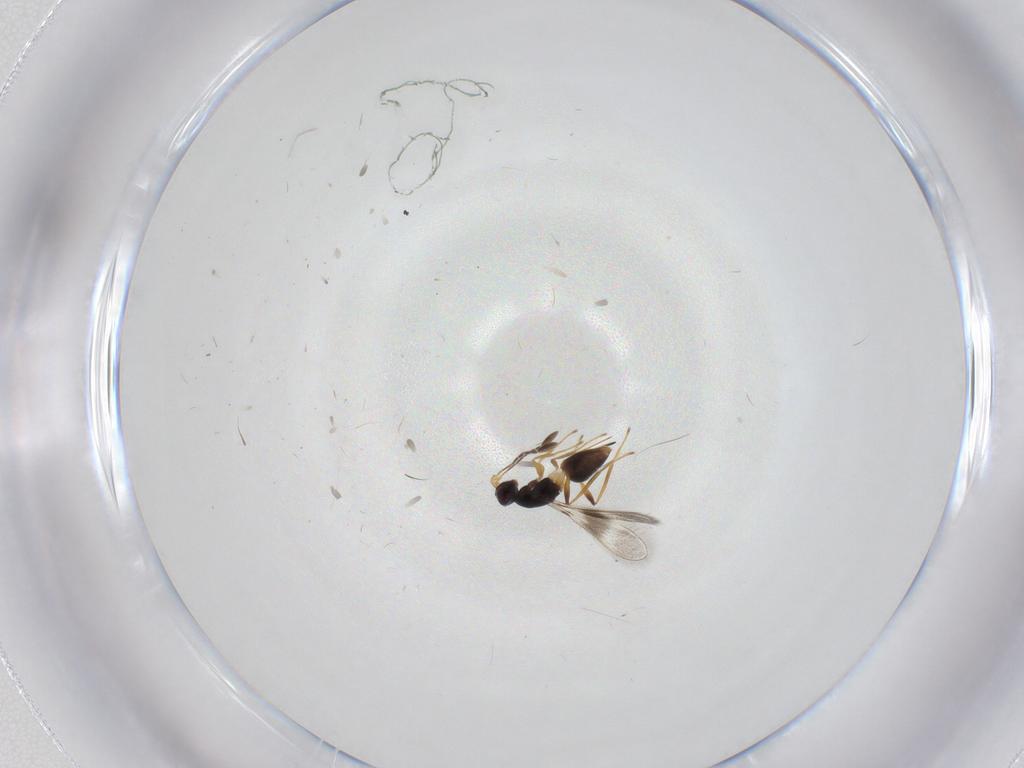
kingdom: Animalia
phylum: Arthropoda
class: Insecta
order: Hymenoptera
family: Mymaridae
